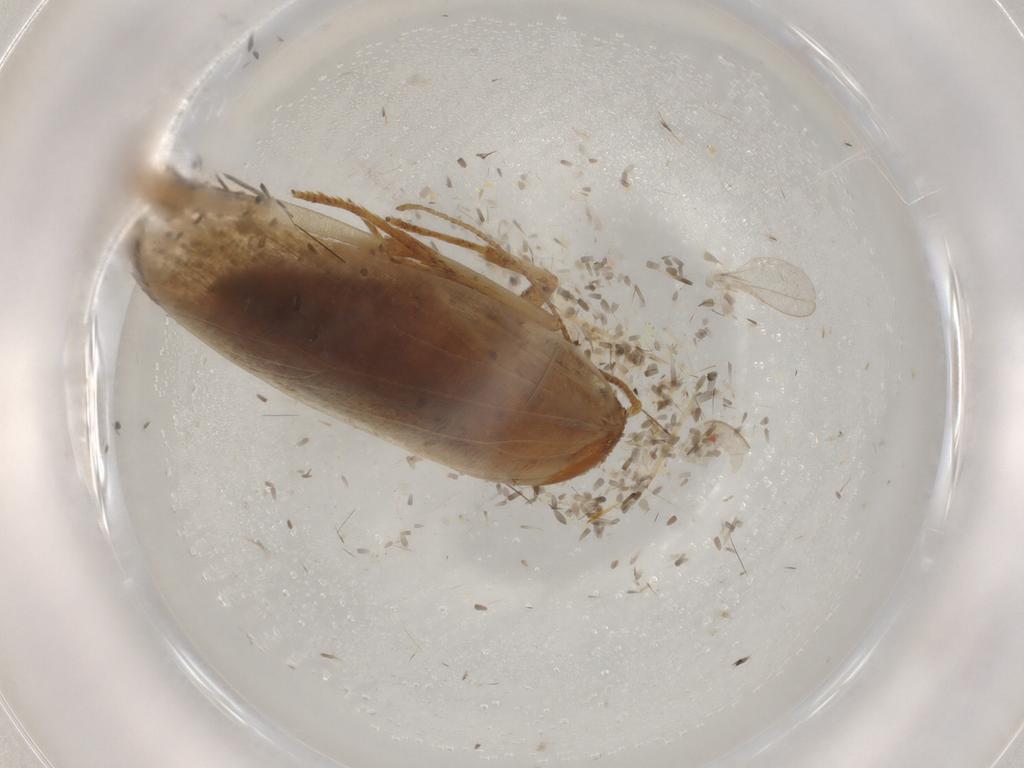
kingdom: Animalia
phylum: Arthropoda
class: Insecta
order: Lepidoptera
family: Gelechiidae
